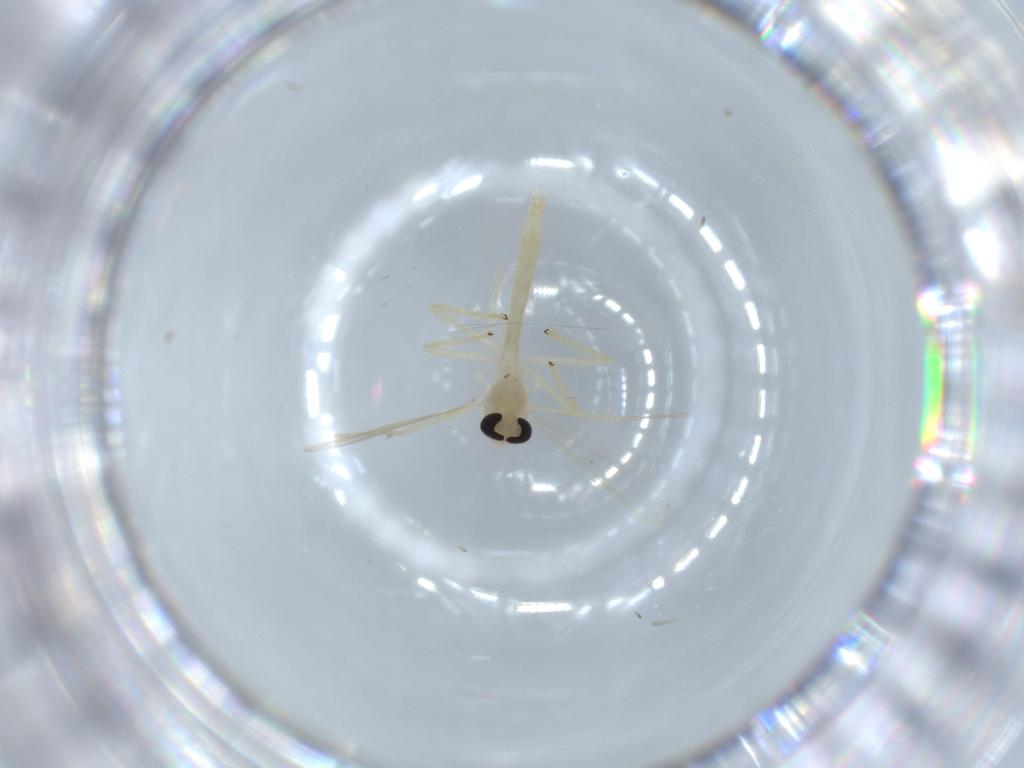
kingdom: Animalia
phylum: Arthropoda
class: Insecta
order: Diptera
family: Chironomidae
